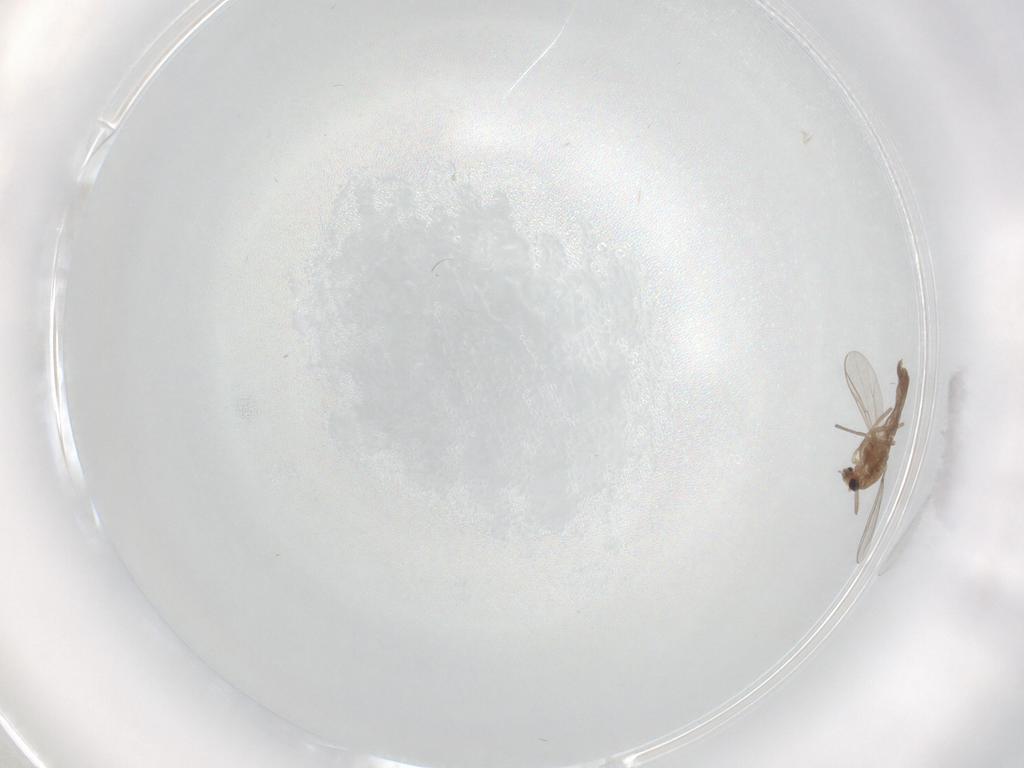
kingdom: Animalia
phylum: Arthropoda
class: Insecta
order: Diptera
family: Chironomidae
